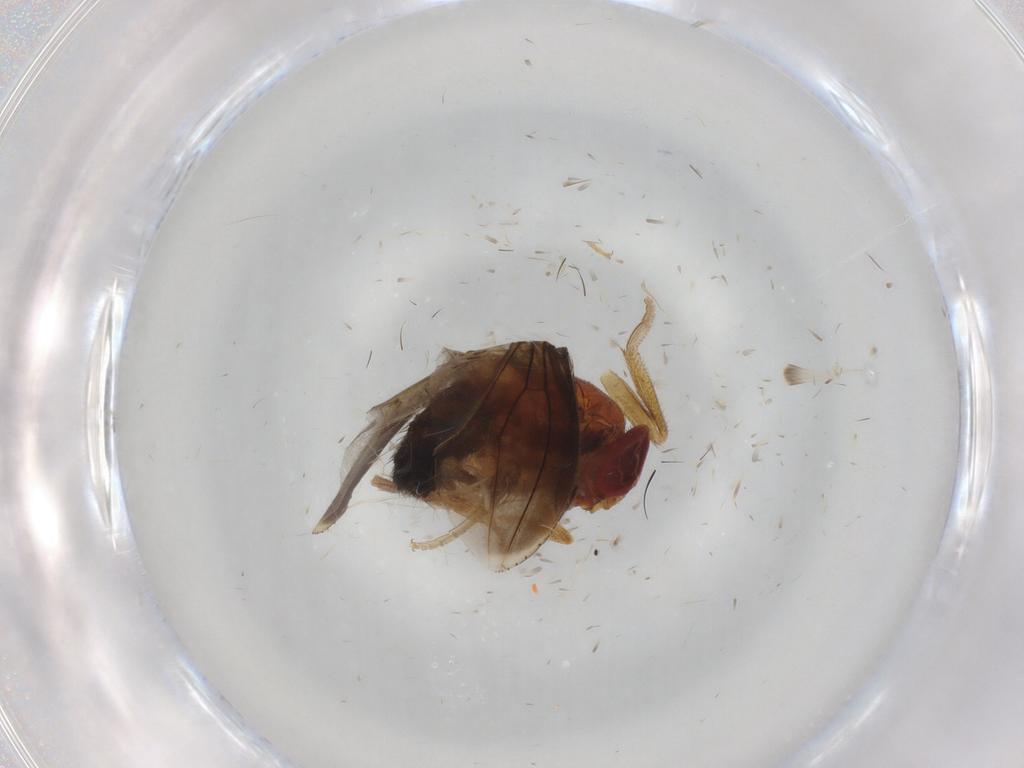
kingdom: Animalia
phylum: Arthropoda
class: Insecta
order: Diptera
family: Drosophilidae
